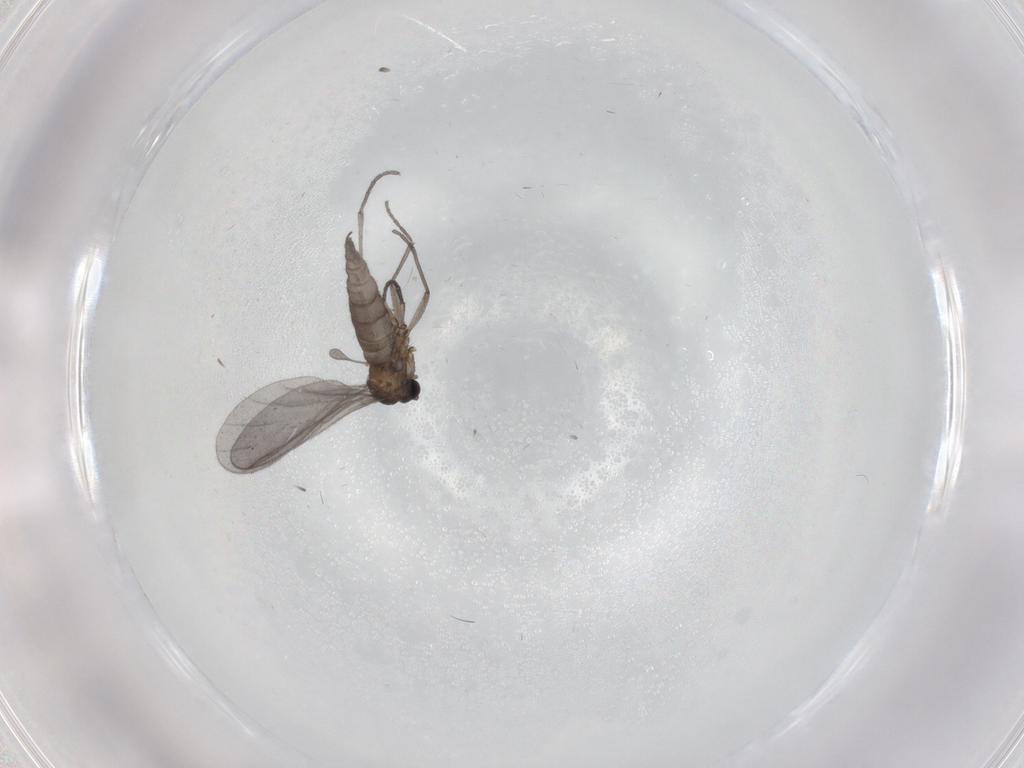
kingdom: Animalia
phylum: Arthropoda
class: Insecta
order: Diptera
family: Sciaridae
